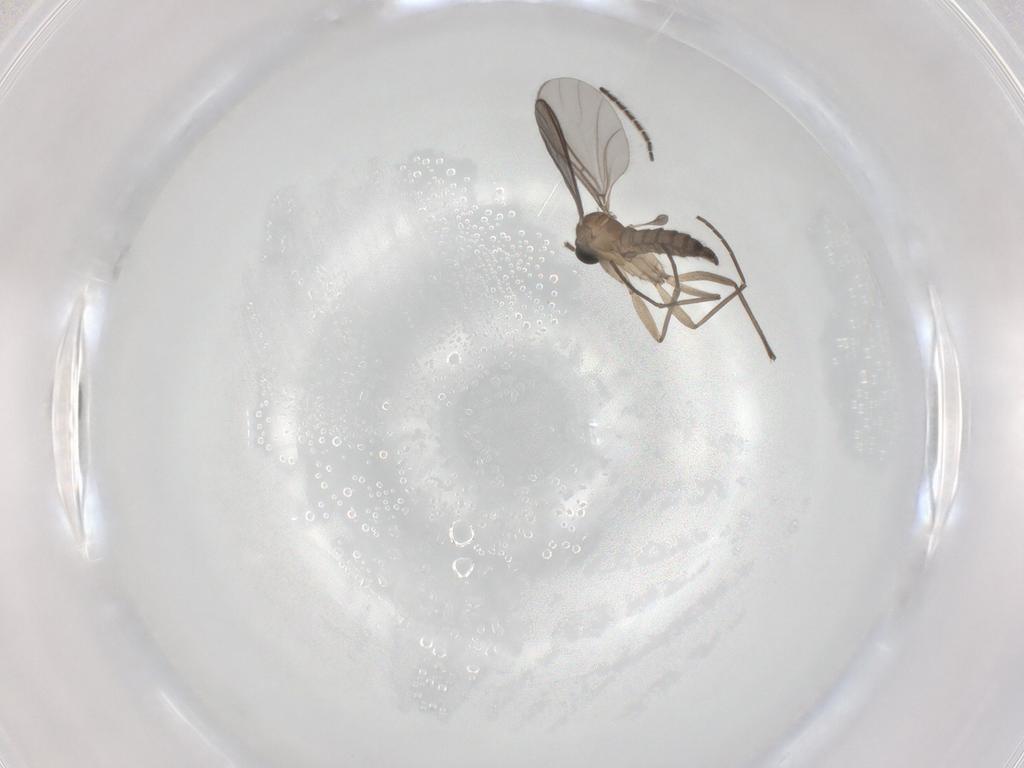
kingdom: Animalia
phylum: Arthropoda
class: Insecta
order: Diptera
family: Sciaridae
